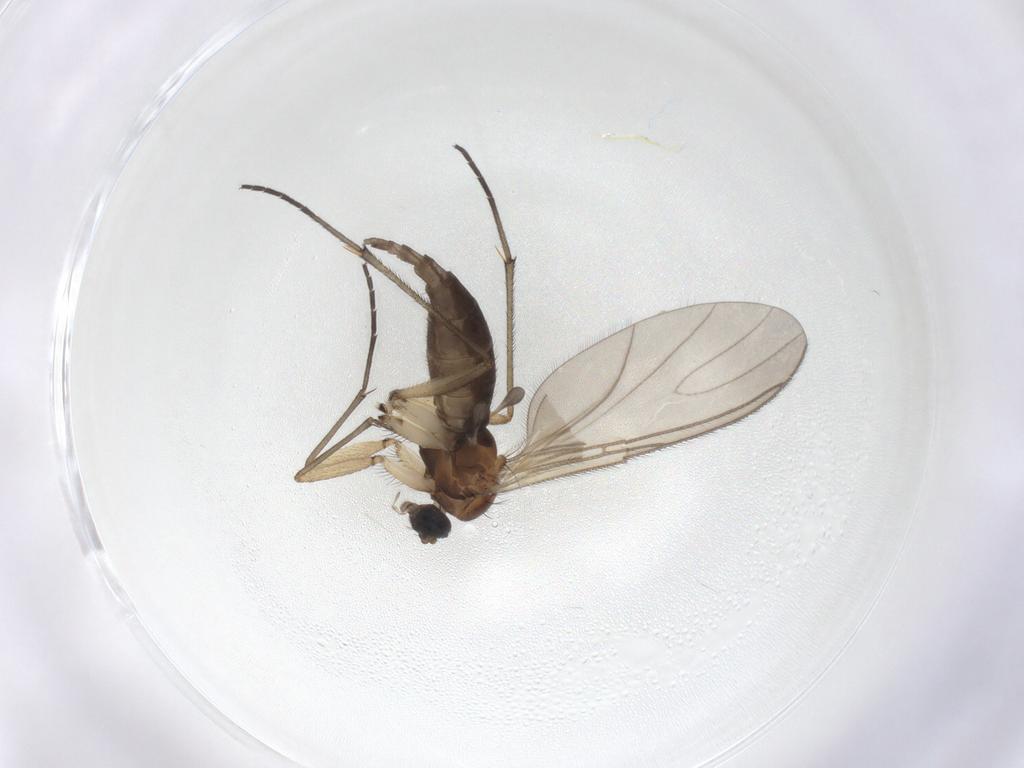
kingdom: Animalia
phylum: Arthropoda
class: Insecta
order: Diptera
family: Sciaridae
